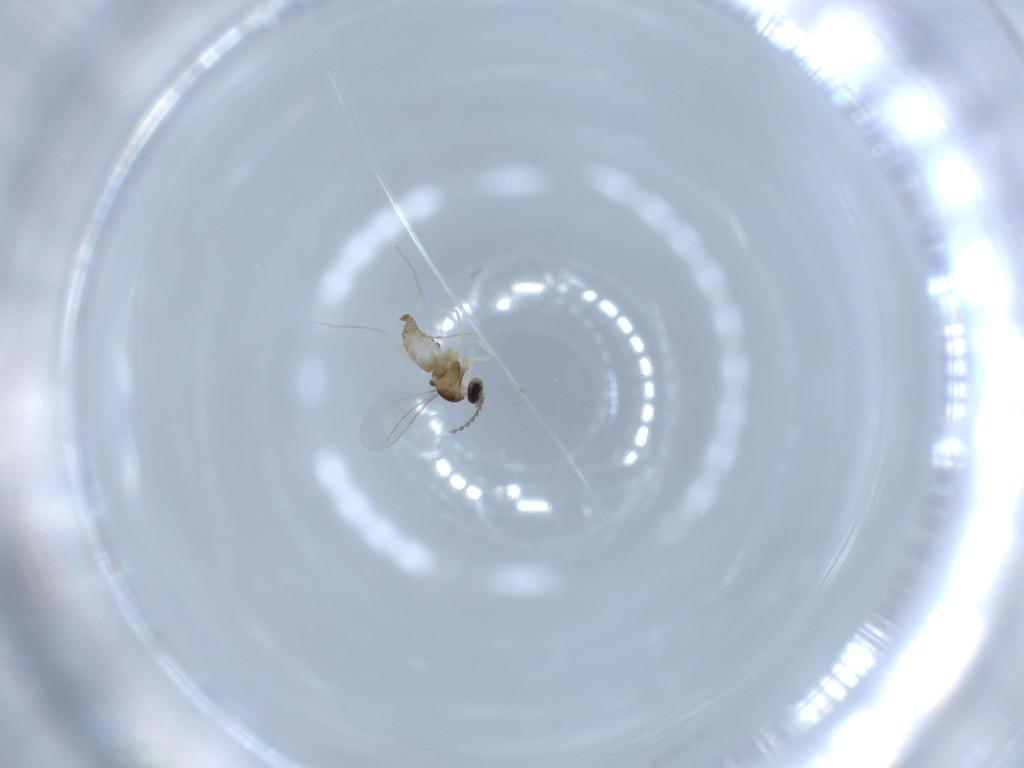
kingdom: Animalia
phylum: Arthropoda
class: Insecta
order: Diptera
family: Cecidomyiidae
